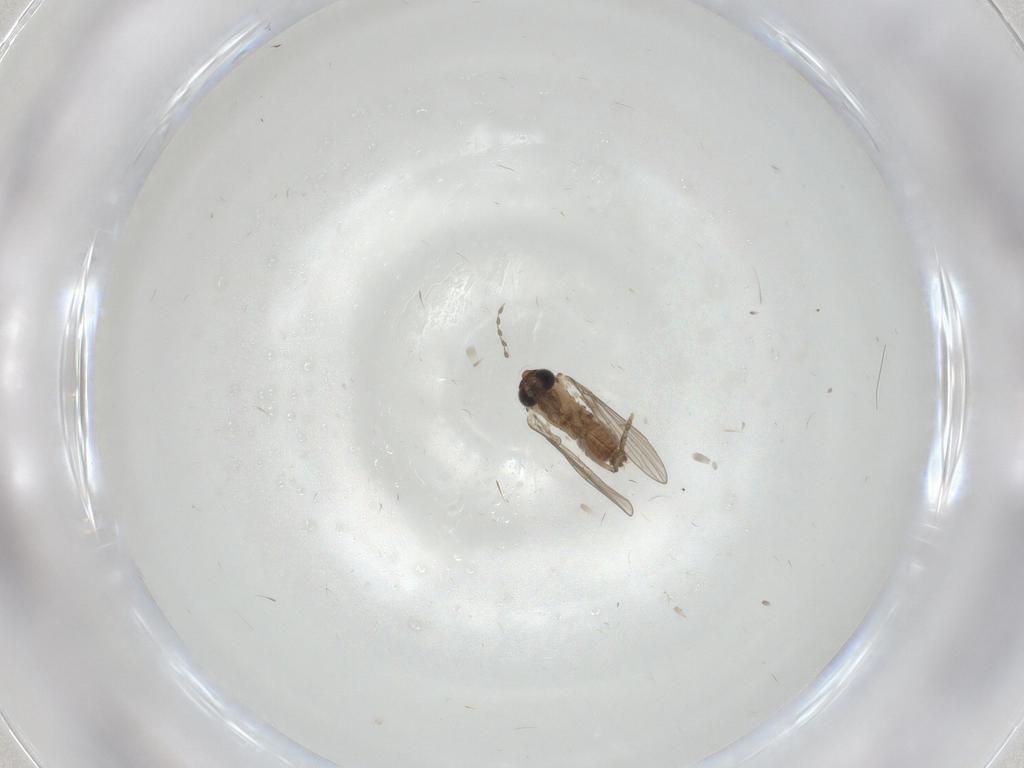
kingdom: Animalia
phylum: Arthropoda
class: Insecta
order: Diptera
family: Psychodidae
